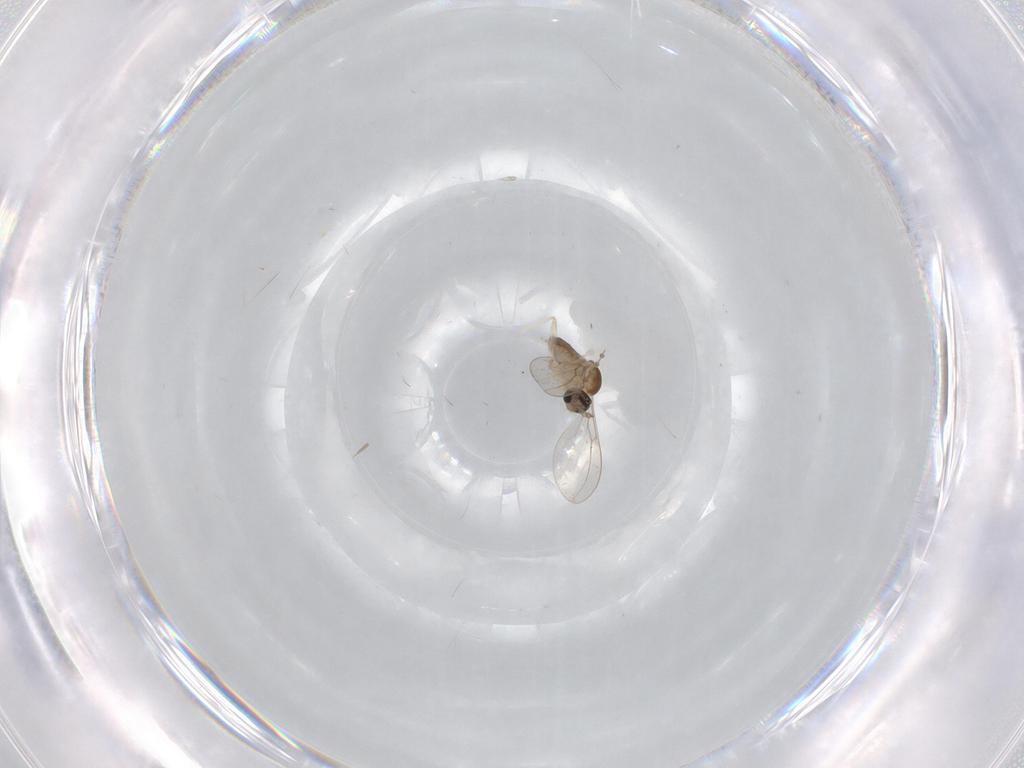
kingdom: Animalia
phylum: Arthropoda
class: Insecta
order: Diptera
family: Cecidomyiidae
